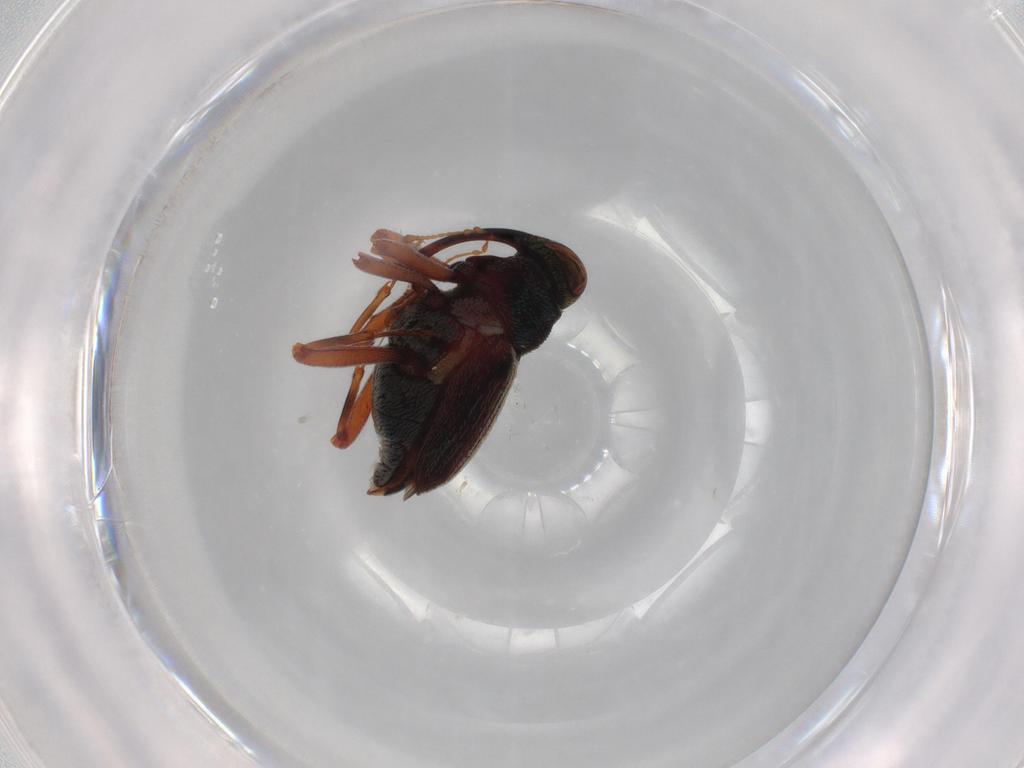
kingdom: Animalia
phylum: Arthropoda
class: Insecta
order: Coleoptera
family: Curculionidae
